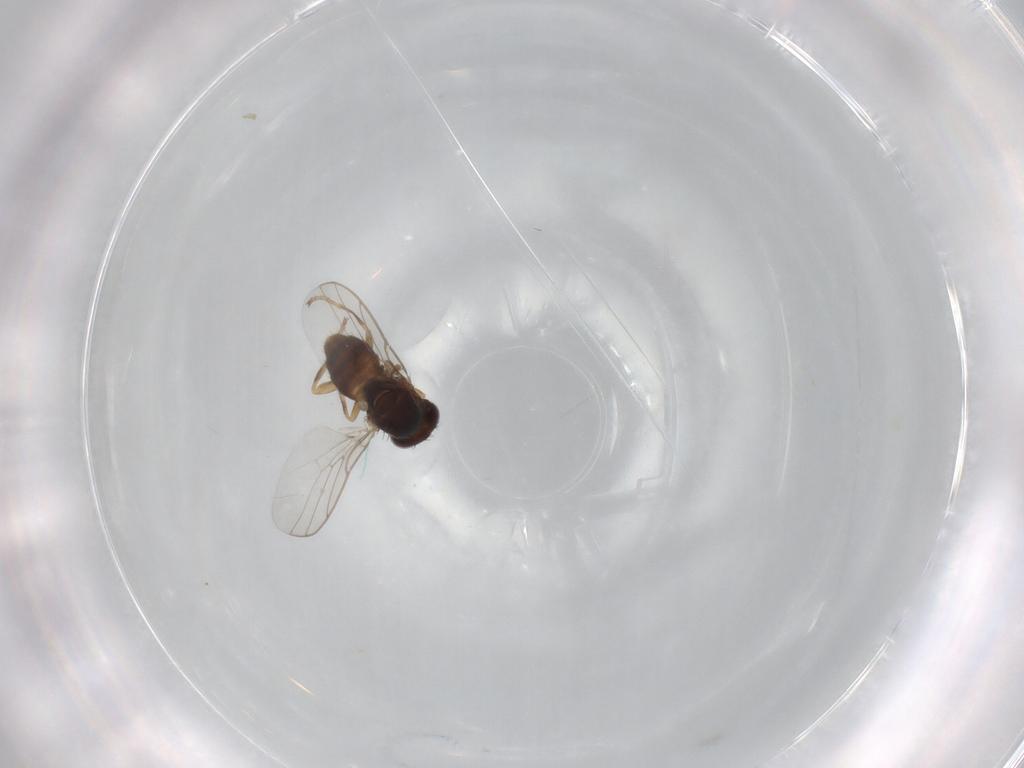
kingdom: Animalia
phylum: Arthropoda
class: Insecta
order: Diptera
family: Chloropidae
